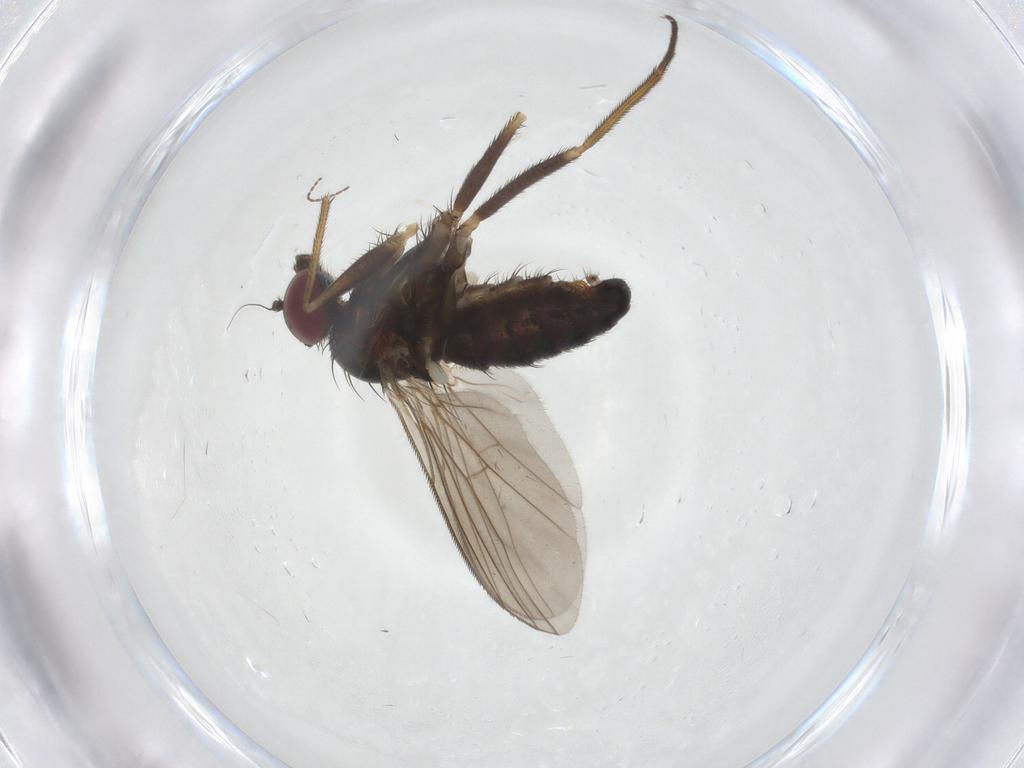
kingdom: Animalia
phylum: Arthropoda
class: Insecta
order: Diptera
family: Dolichopodidae
